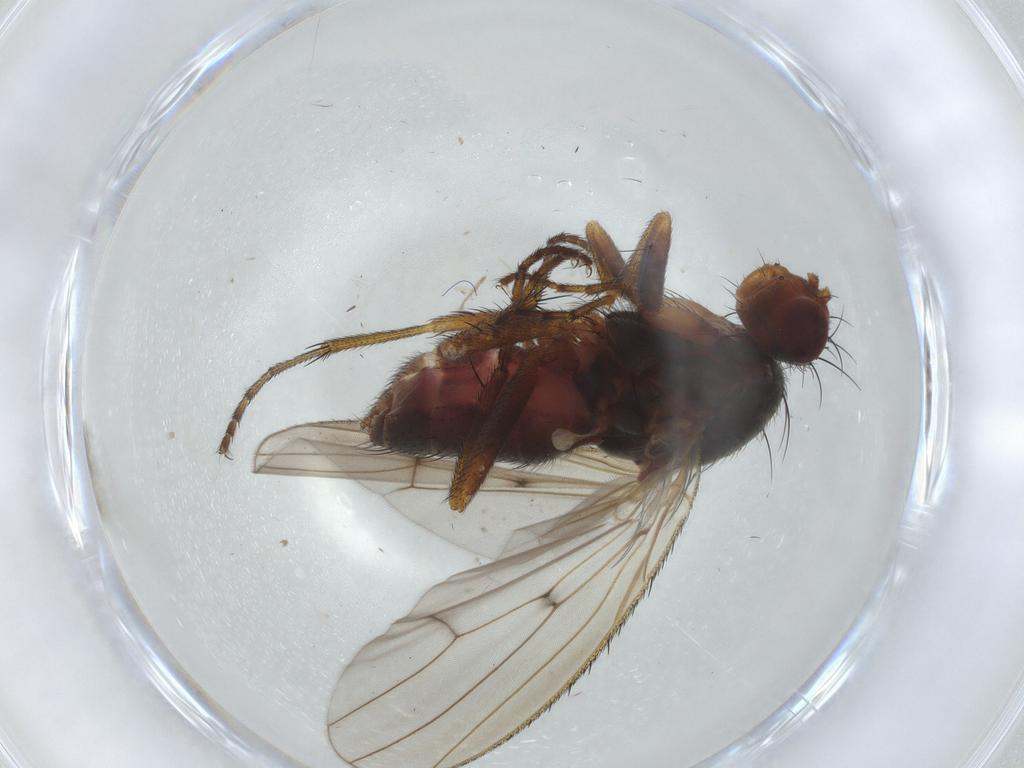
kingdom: Animalia
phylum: Arthropoda
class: Insecta
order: Diptera
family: Heleomyzidae
